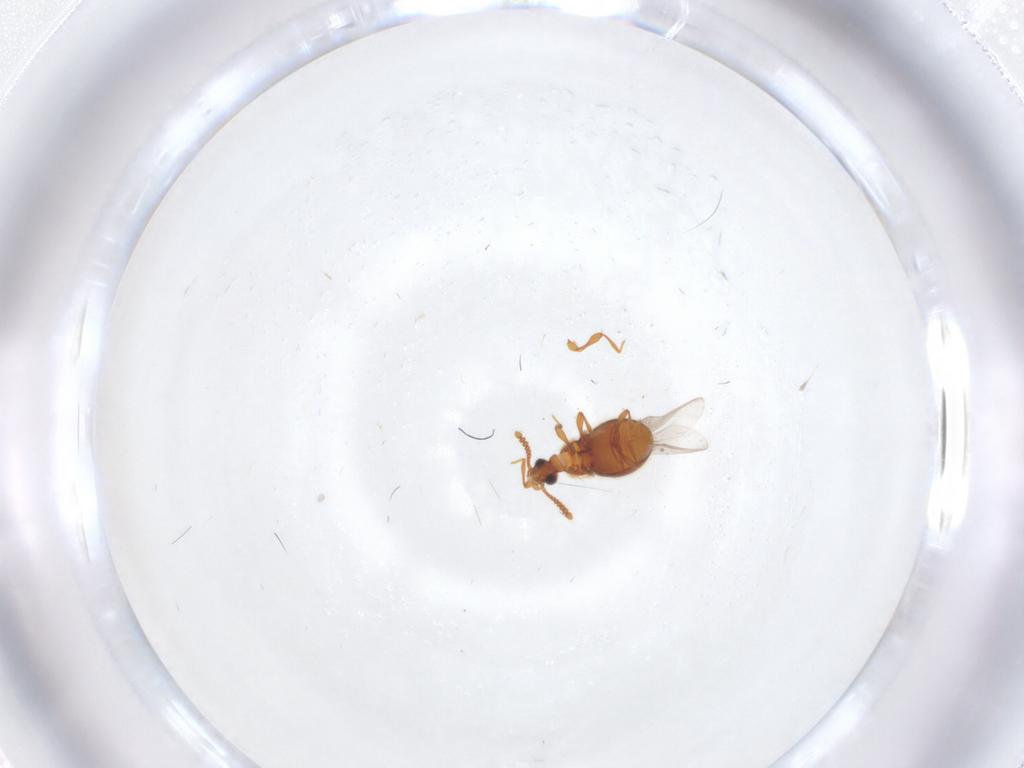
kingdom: Animalia
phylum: Arthropoda
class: Insecta
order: Coleoptera
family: Staphylinidae
